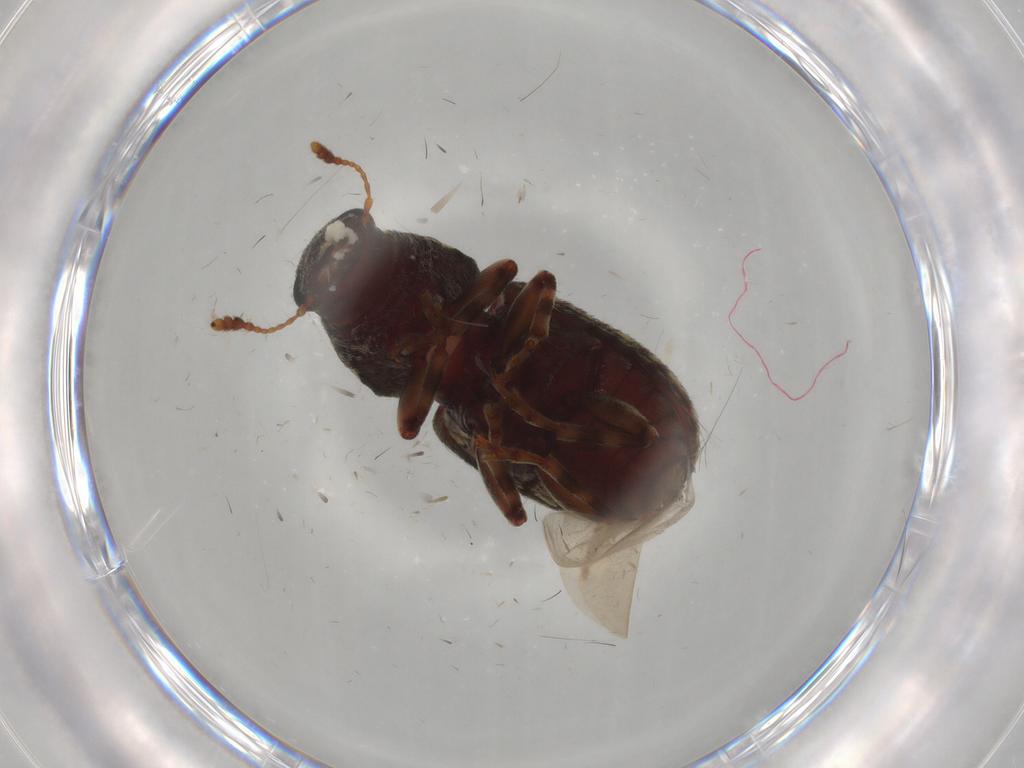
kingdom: Animalia
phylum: Arthropoda
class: Insecta
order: Coleoptera
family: Anthribidae
